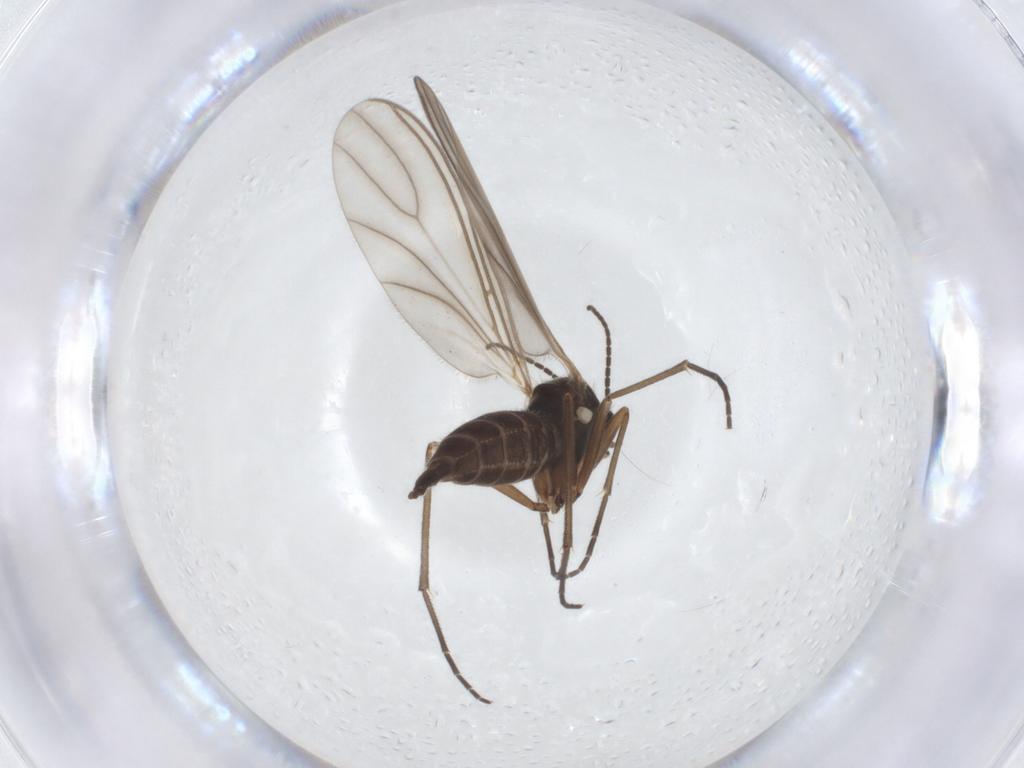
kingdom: Animalia
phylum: Arthropoda
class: Insecta
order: Diptera
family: Sciaridae
